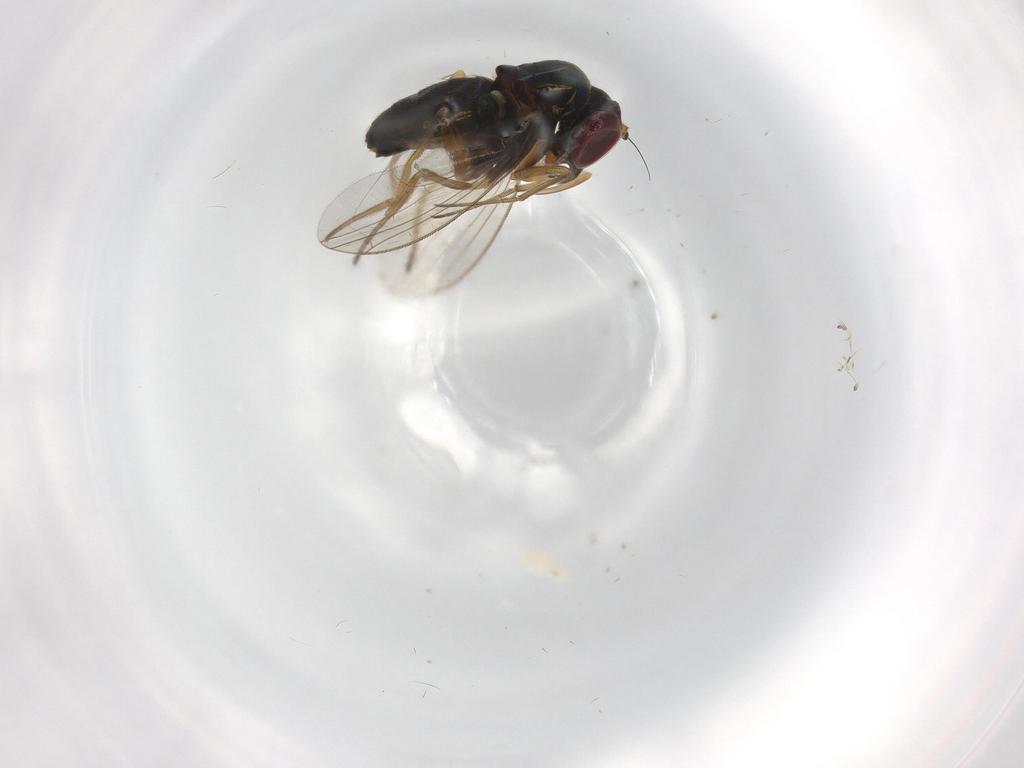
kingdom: Animalia
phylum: Arthropoda
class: Insecta
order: Diptera
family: Dolichopodidae
